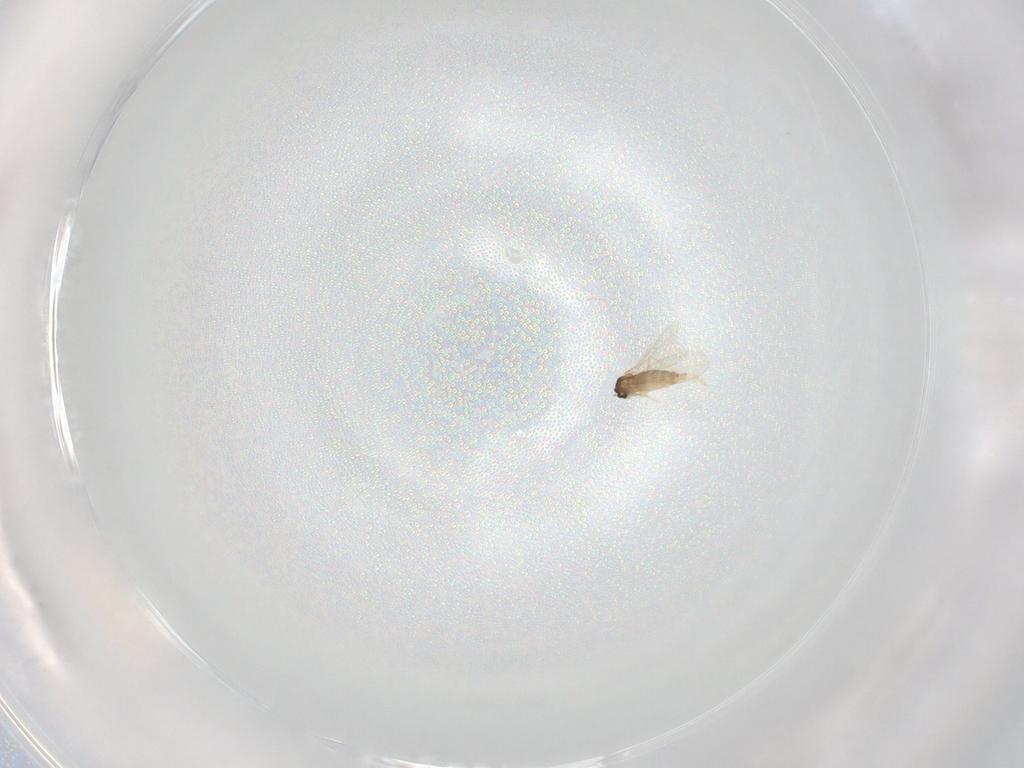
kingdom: Animalia
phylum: Arthropoda
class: Insecta
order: Diptera
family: Cecidomyiidae
